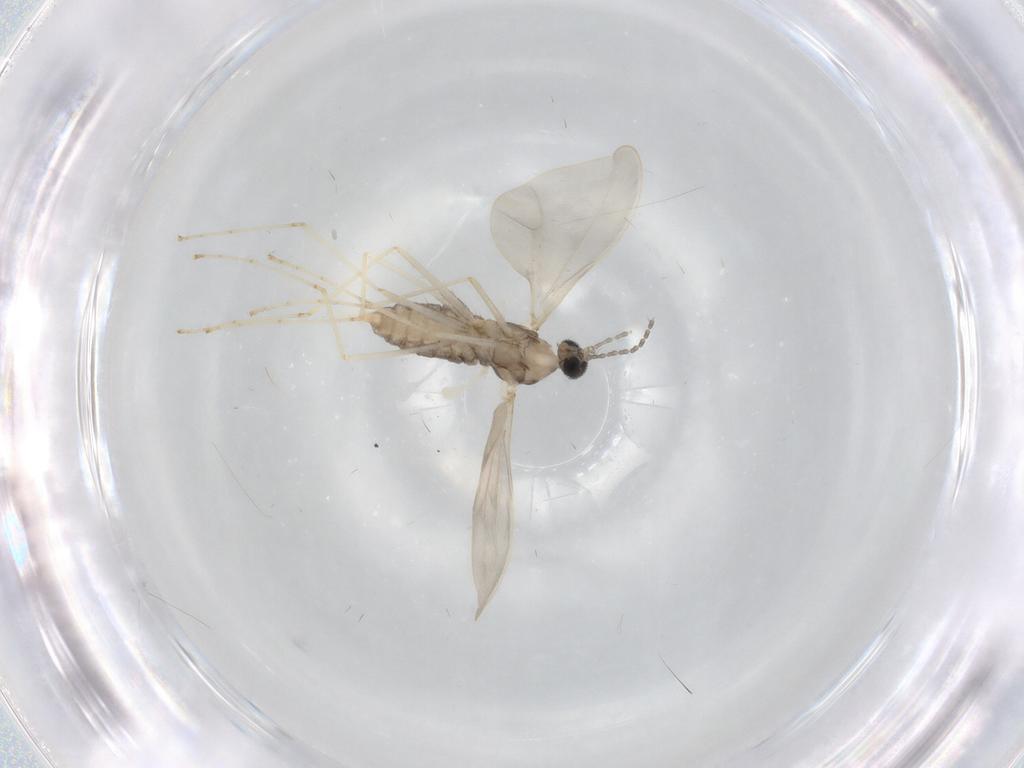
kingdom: Animalia
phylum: Arthropoda
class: Insecta
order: Diptera
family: Cecidomyiidae
